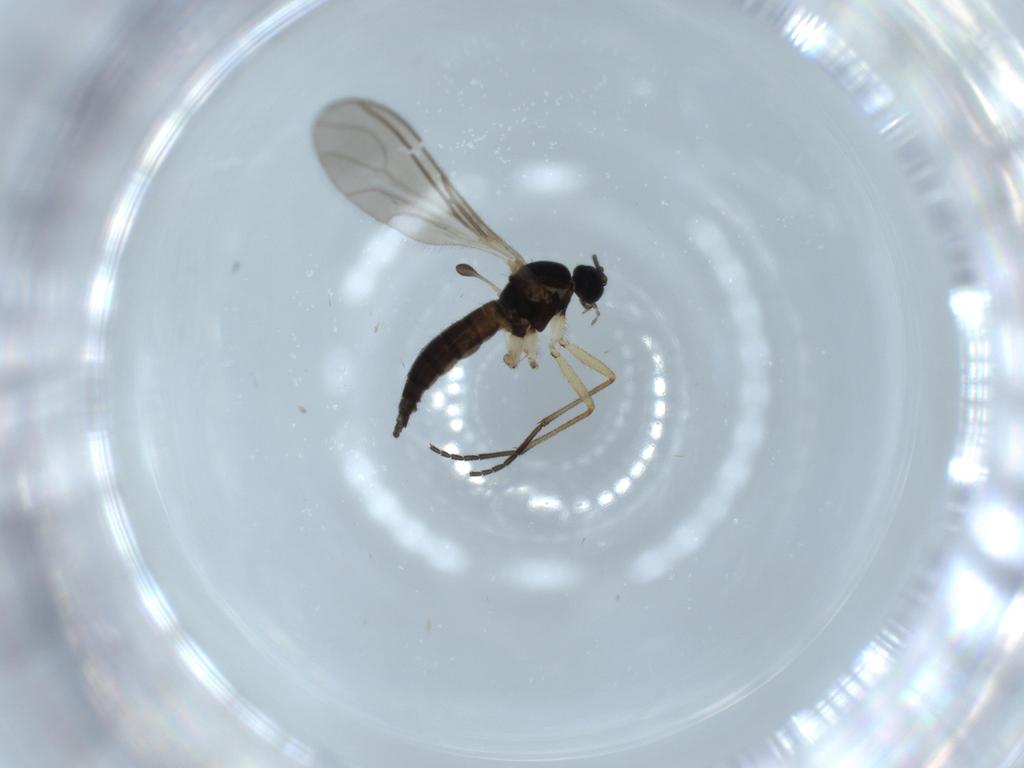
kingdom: Animalia
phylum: Arthropoda
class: Insecta
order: Diptera
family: Sciaridae
